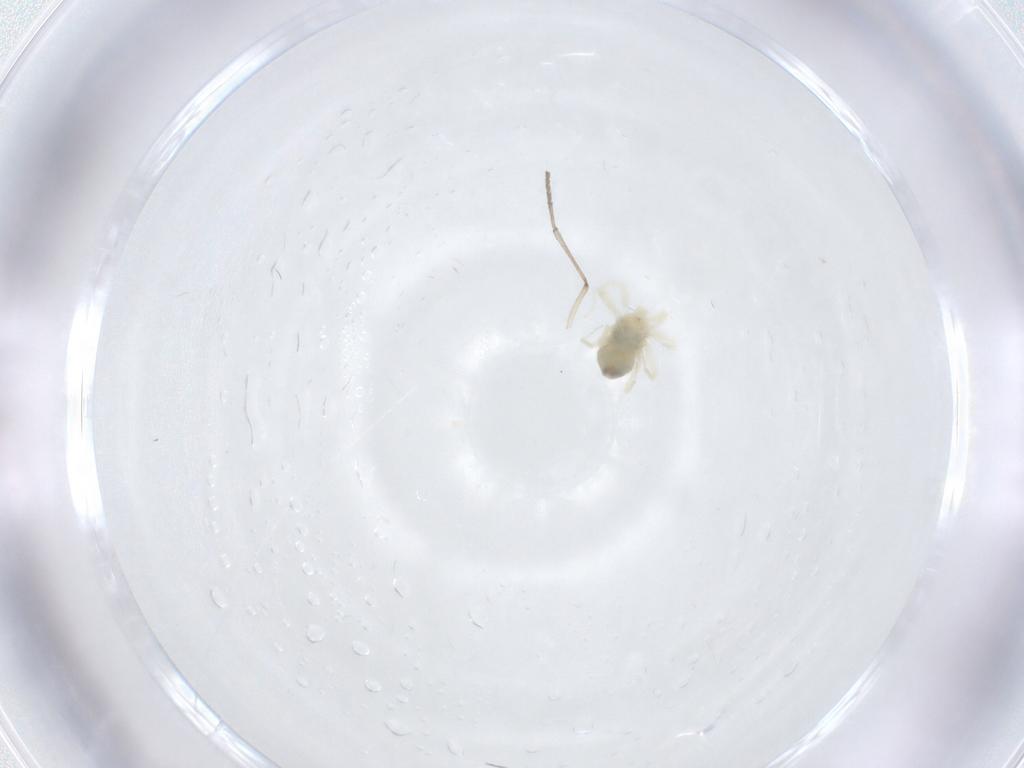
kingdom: Animalia
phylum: Arthropoda
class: Arachnida
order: Trombidiformes
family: Anystidae
